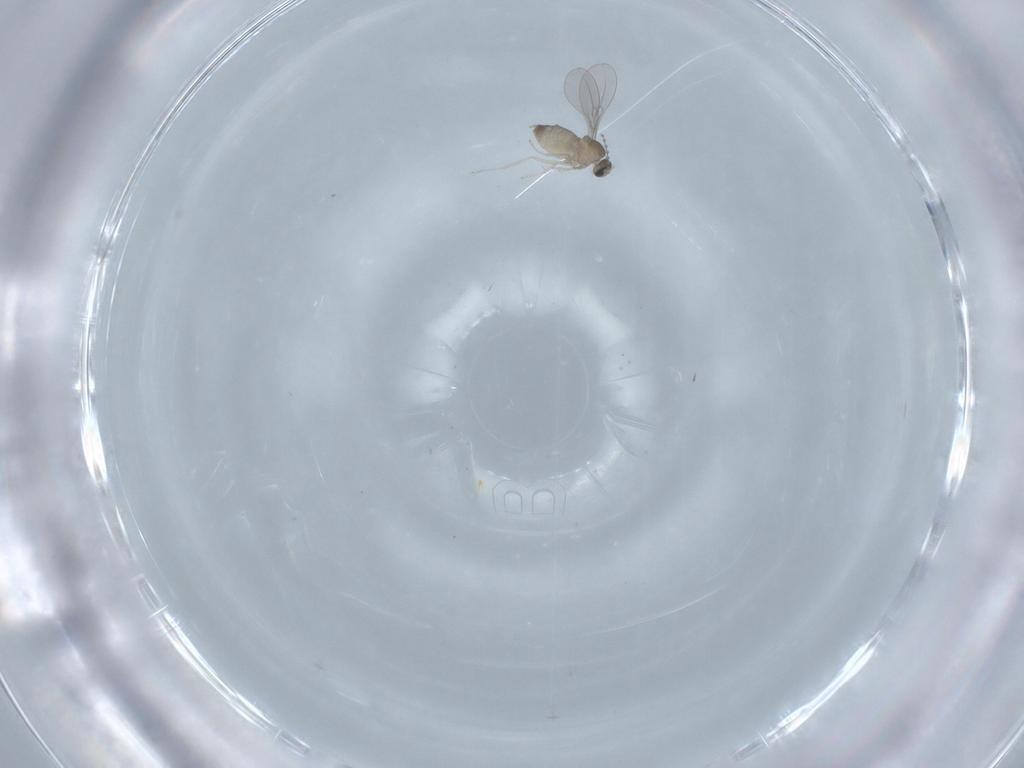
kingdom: Animalia
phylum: Arthropoda
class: Insecta
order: Diptera
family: Cecidomyiidae
